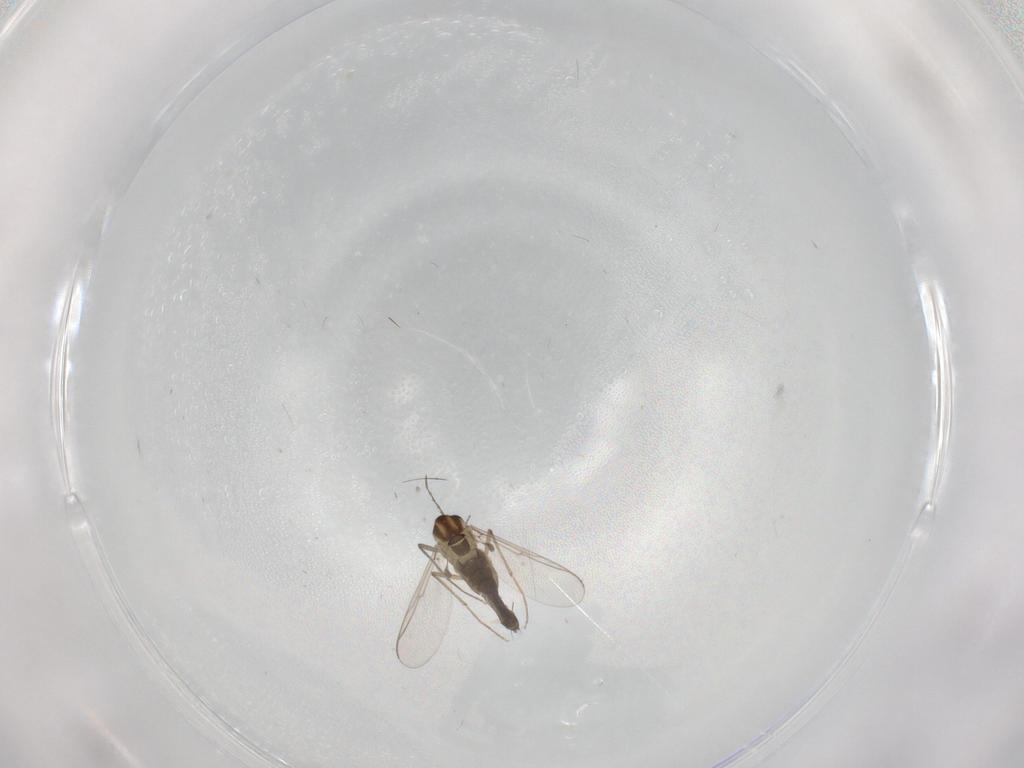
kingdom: Animalia
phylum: Arthropoda
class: Insecta
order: Diptera
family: Chironomidae
